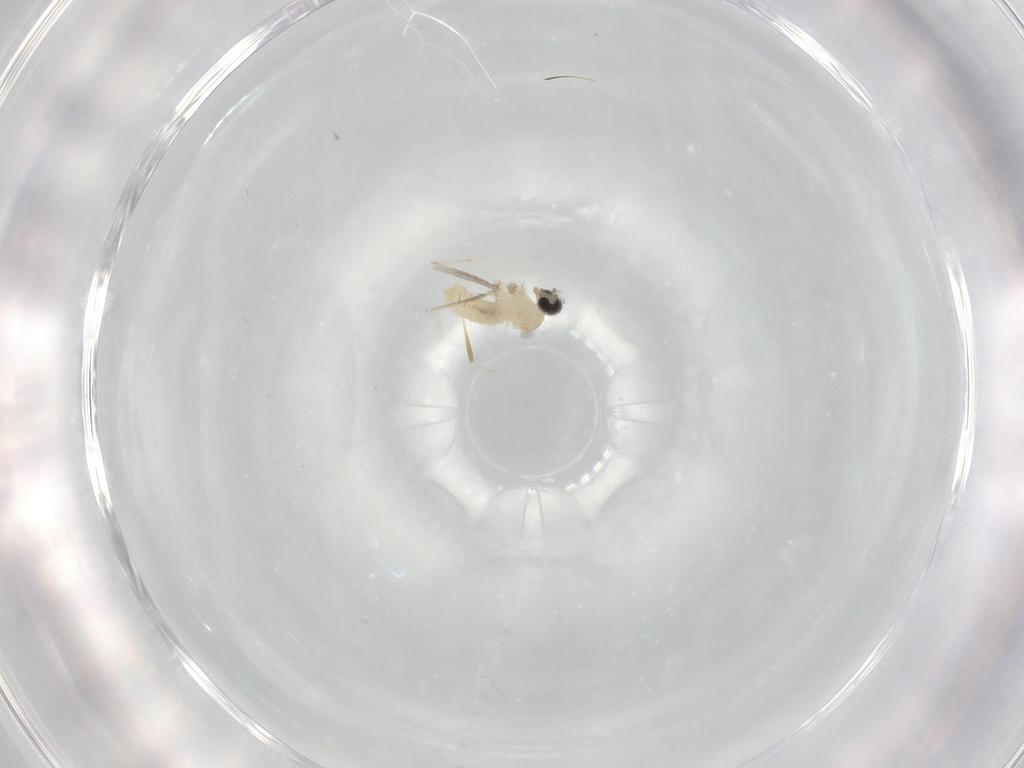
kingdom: Animalia
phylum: Arthropoda
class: Insecta
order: Diptera
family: Cecidomyiidae
